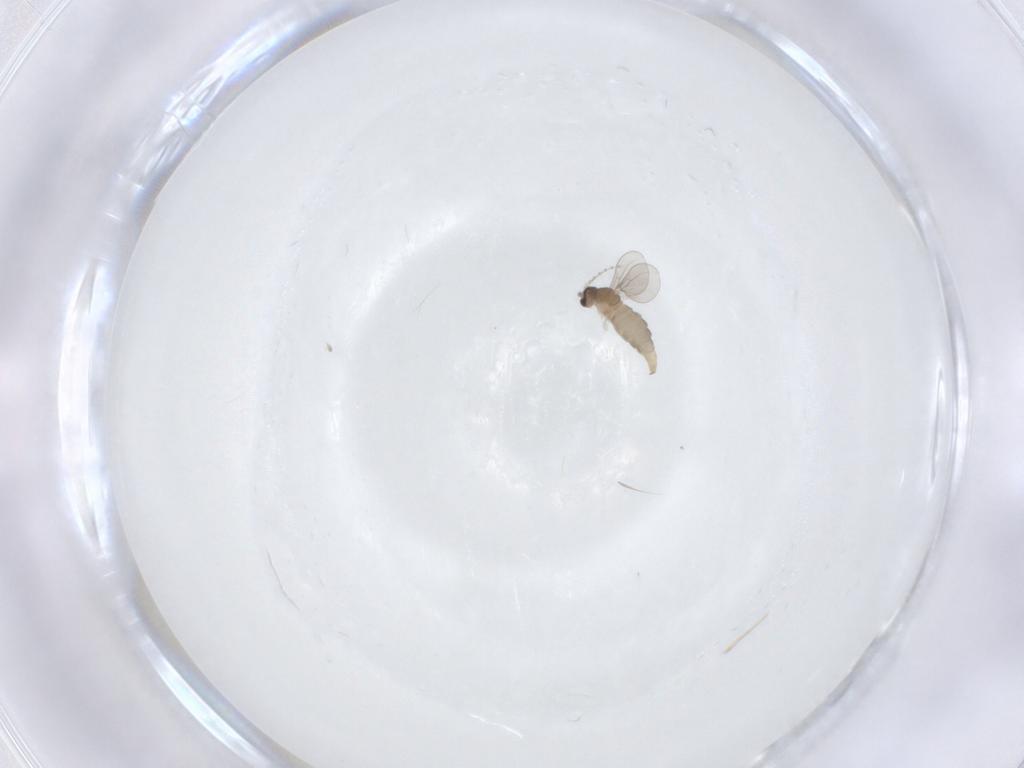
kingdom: Animalia
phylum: Arthropoda
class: Insecta
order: Diptera
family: Cecidomyiidae
